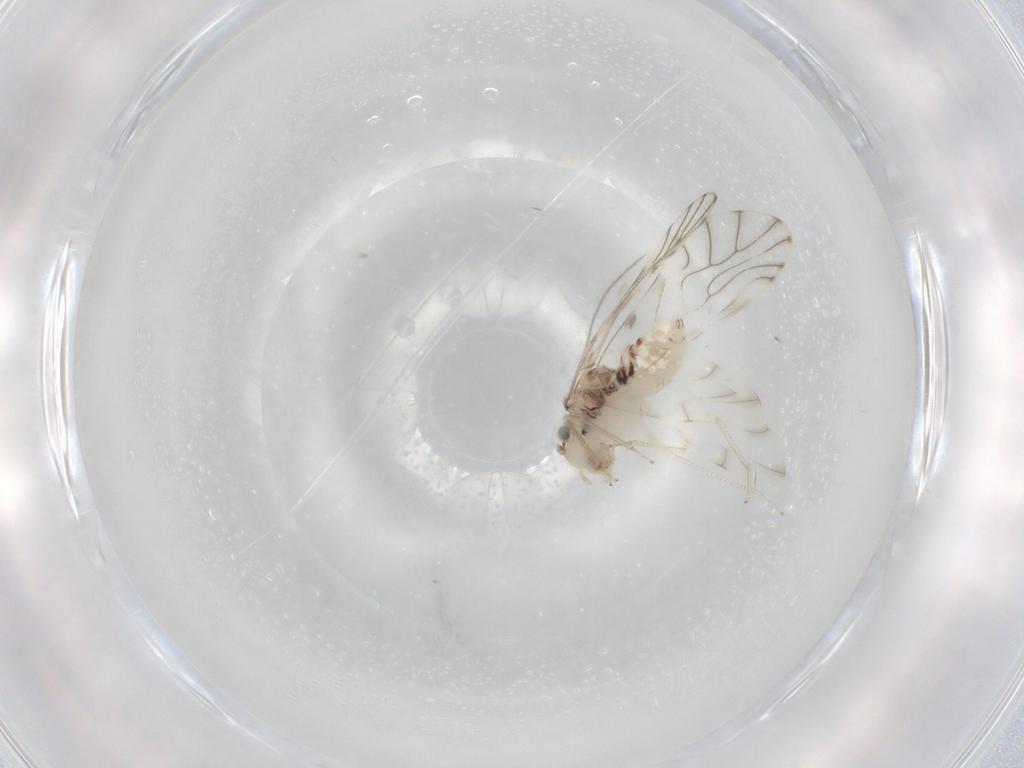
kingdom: Animalia
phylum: Arthropoda
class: Insecta
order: Psocodea
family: Philotarsidae
